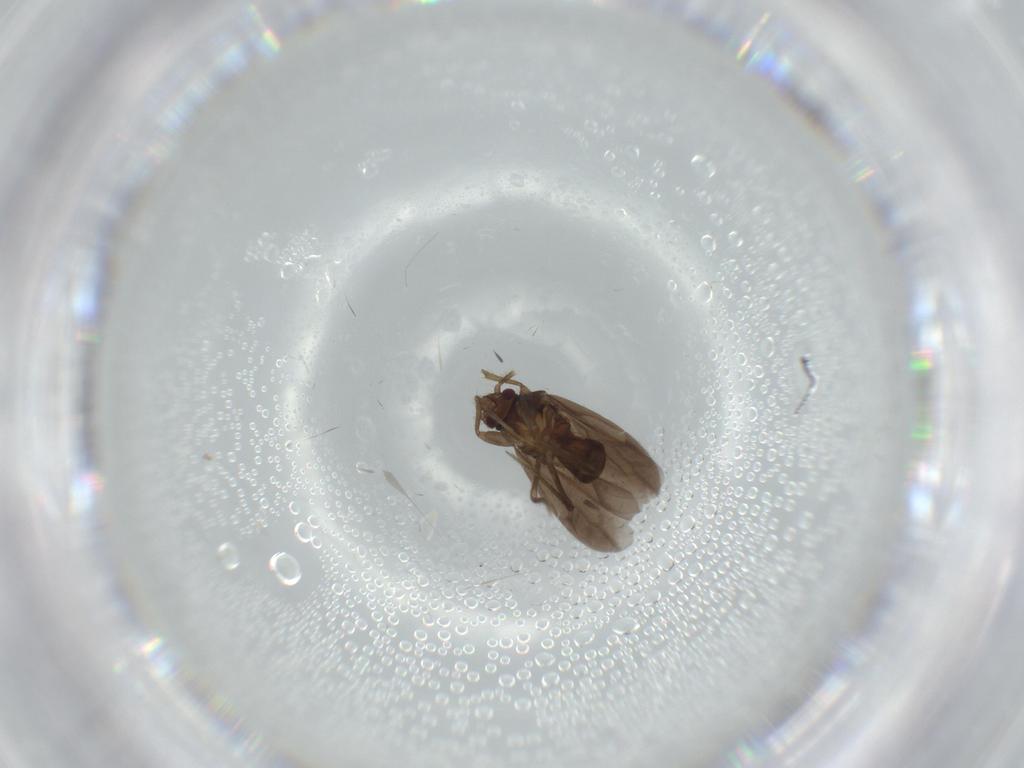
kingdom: Animalia
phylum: Arthropoda
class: Insecta
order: Hemiptera
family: Ceratocombidae
